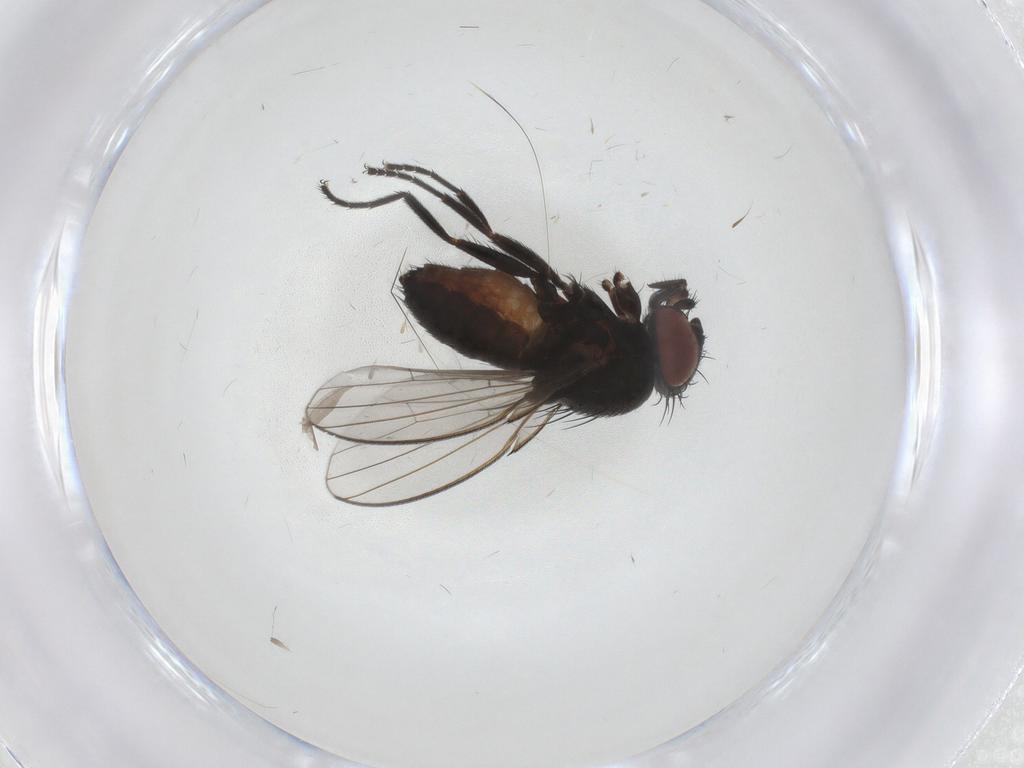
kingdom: Animalia
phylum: Arthropoda
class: Insecta
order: Diptera
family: Milichiidae
